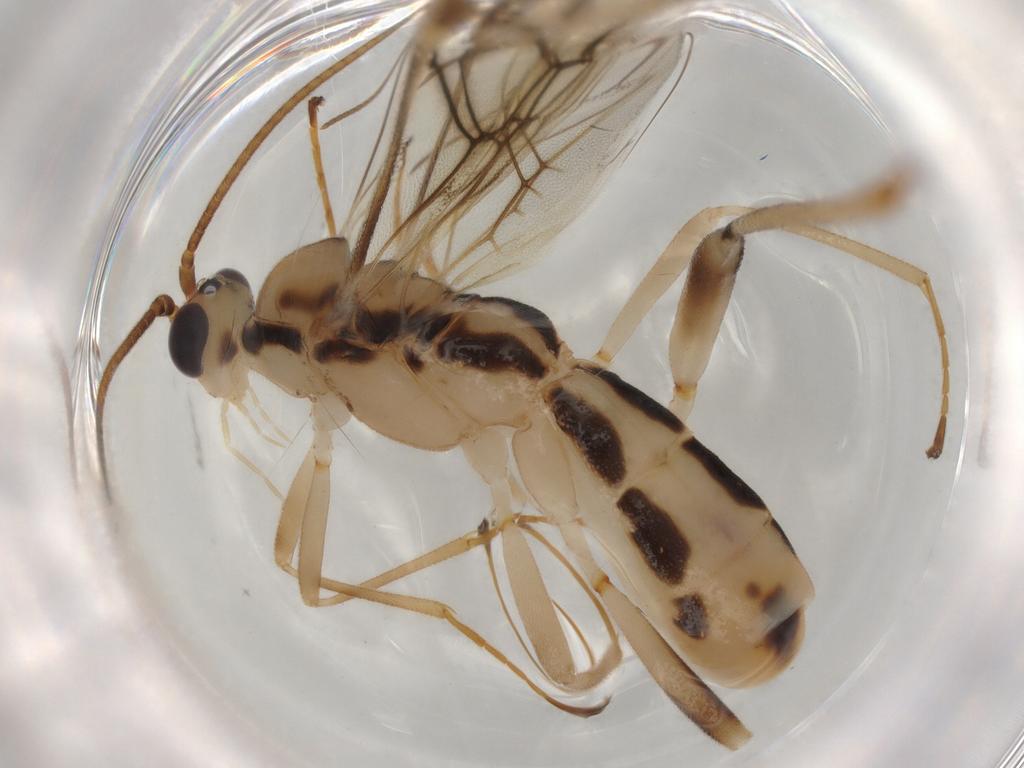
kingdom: Animalia
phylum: Arthropoda
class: Insecta
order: Hymenoptera
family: Ichneumonidae
